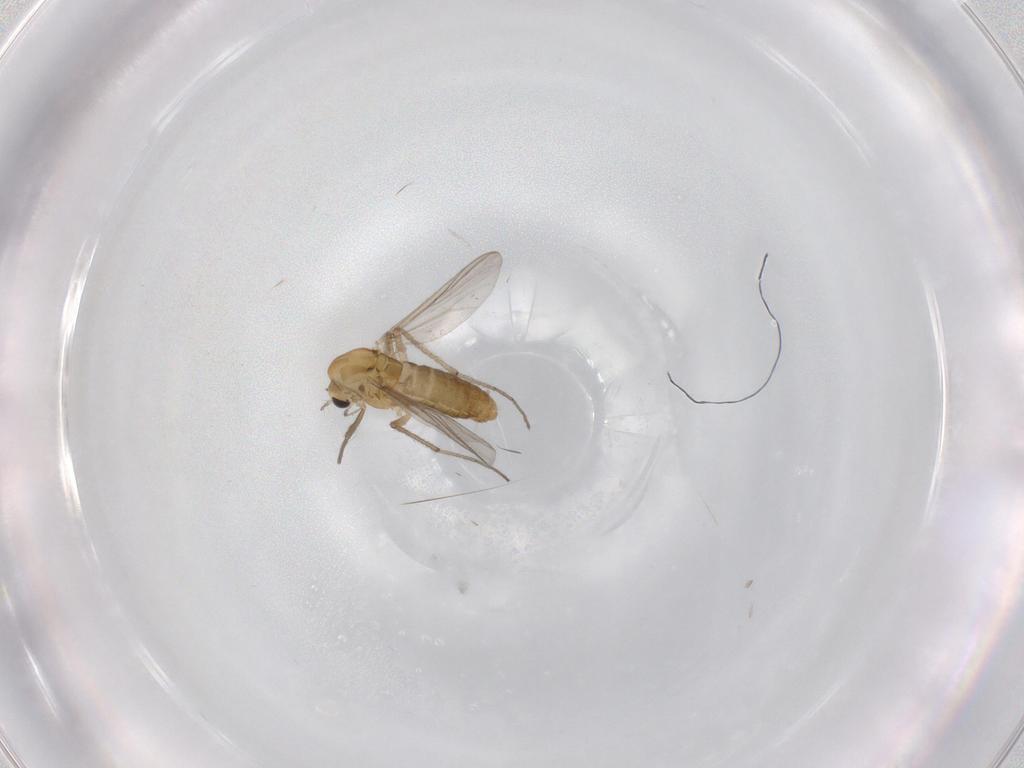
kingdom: Animalia
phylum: Arthropoda
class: Insecta
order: Diptera
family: Chironomidae
